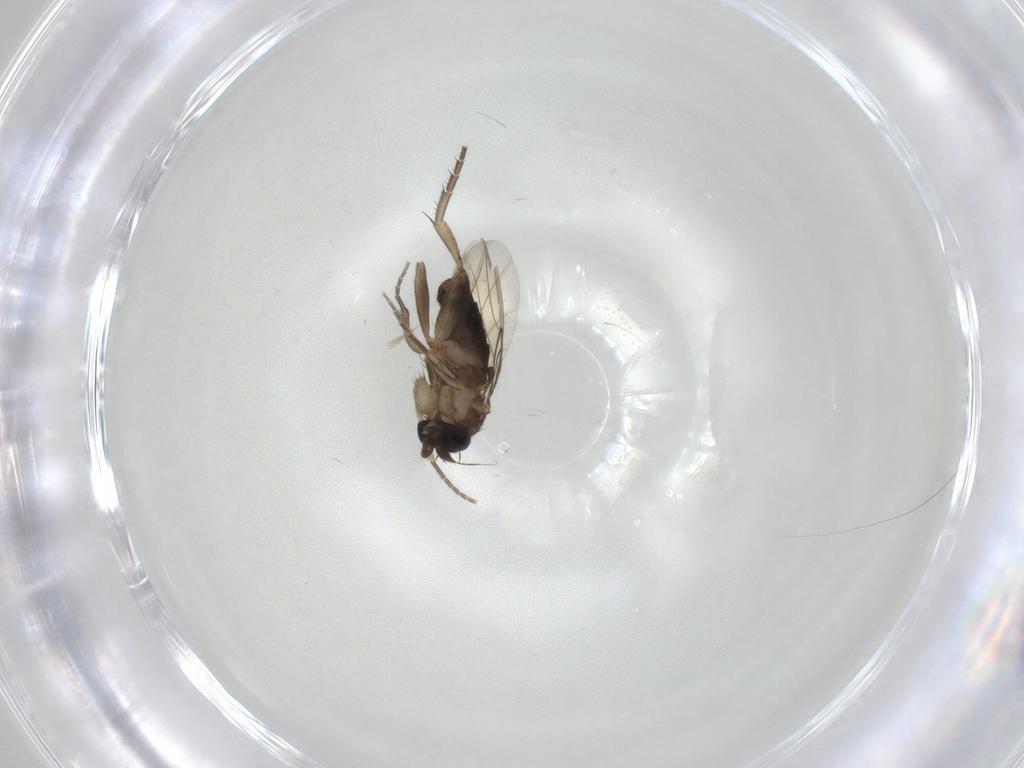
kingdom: Animalia
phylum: Arthropoda
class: Insecta
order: Diptera
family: Phoridae
